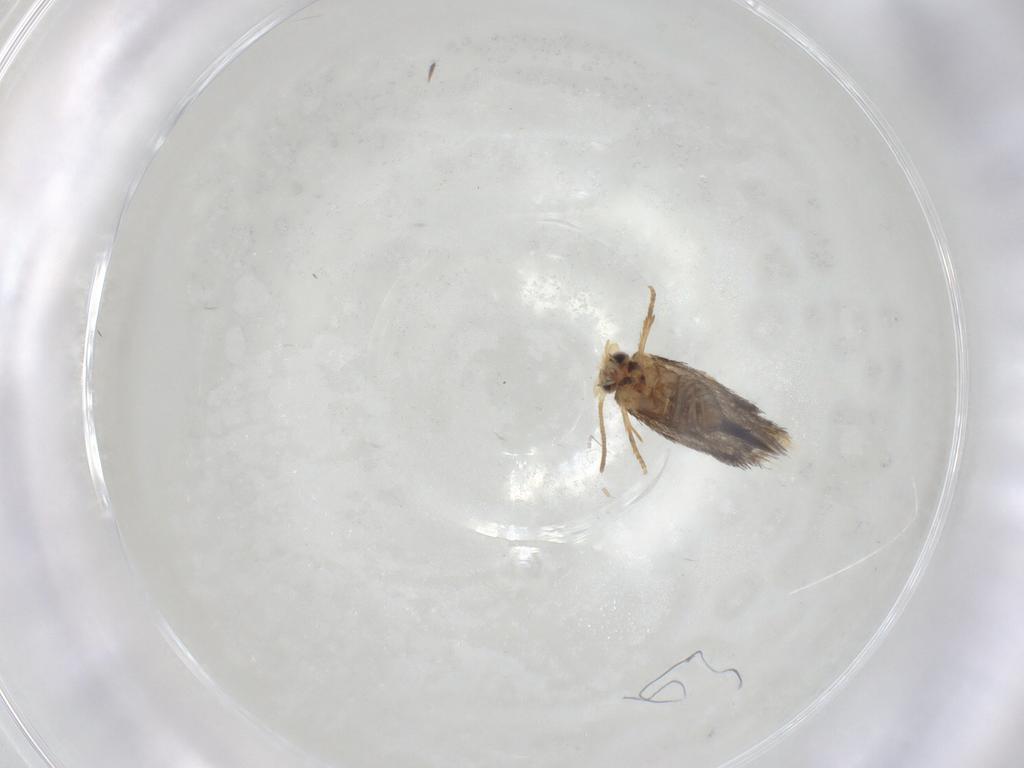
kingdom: Animalia
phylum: Arthropoda
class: Insecta
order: Lepidoptera
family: Nepticulidae
